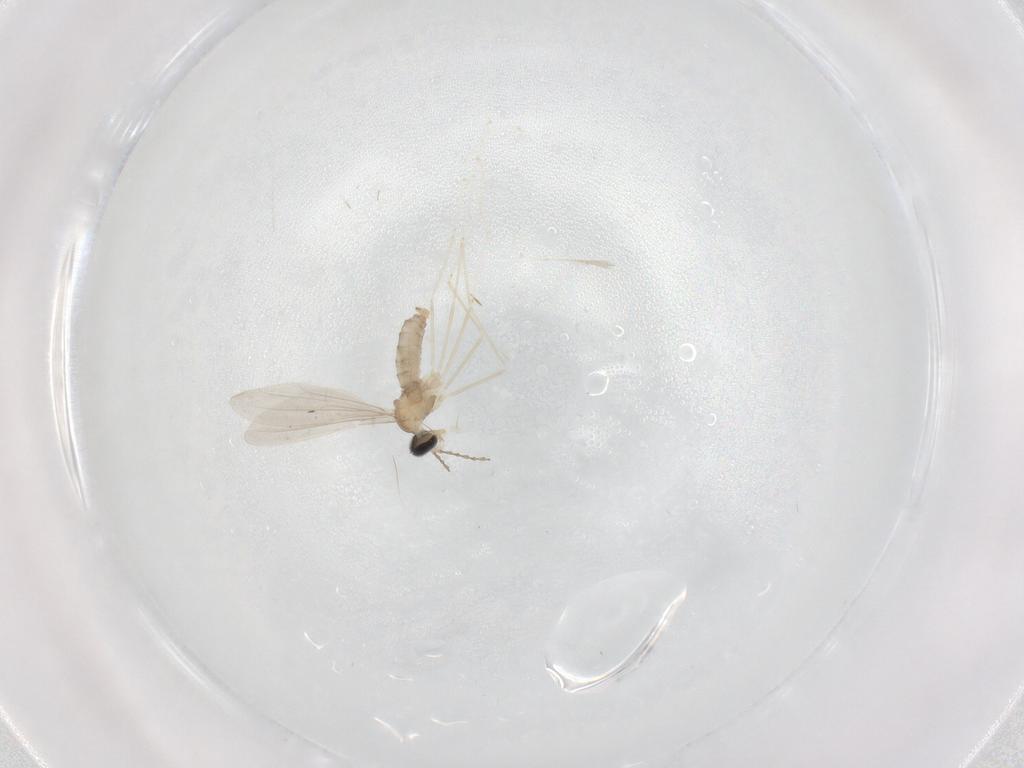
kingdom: Animalia
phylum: Arthropoda
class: Insecta
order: Diptera
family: Cecidomyiidae
